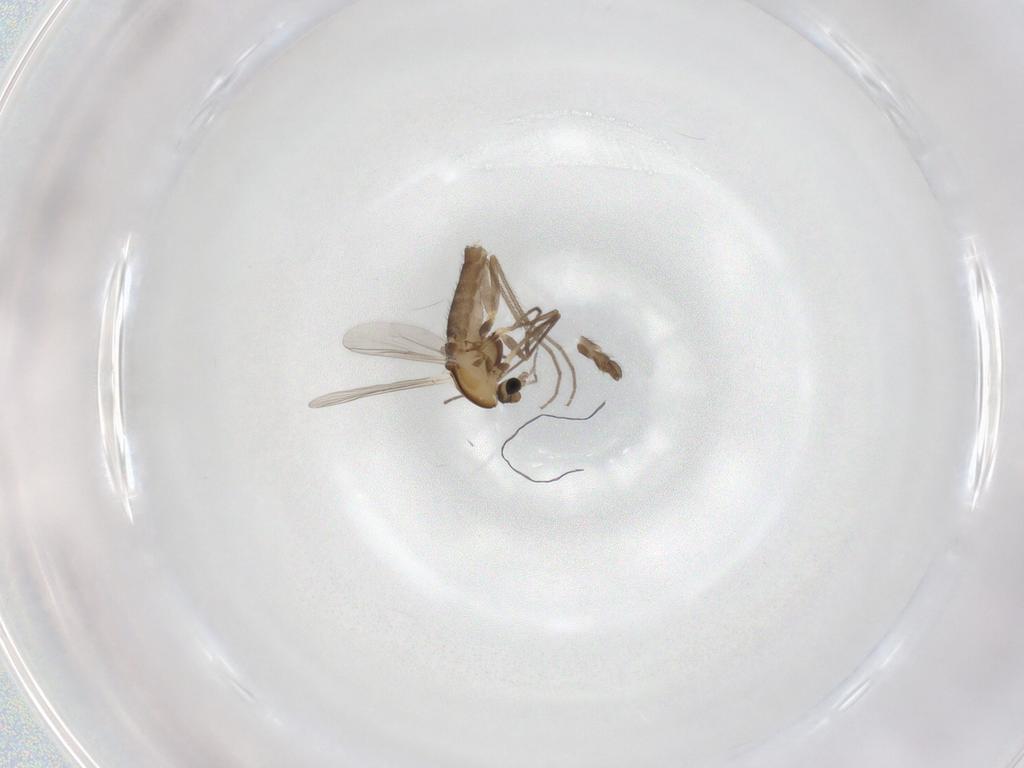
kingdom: Animalia
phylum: Arthropoda
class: Insecta
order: Diptera
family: Chironomidae
